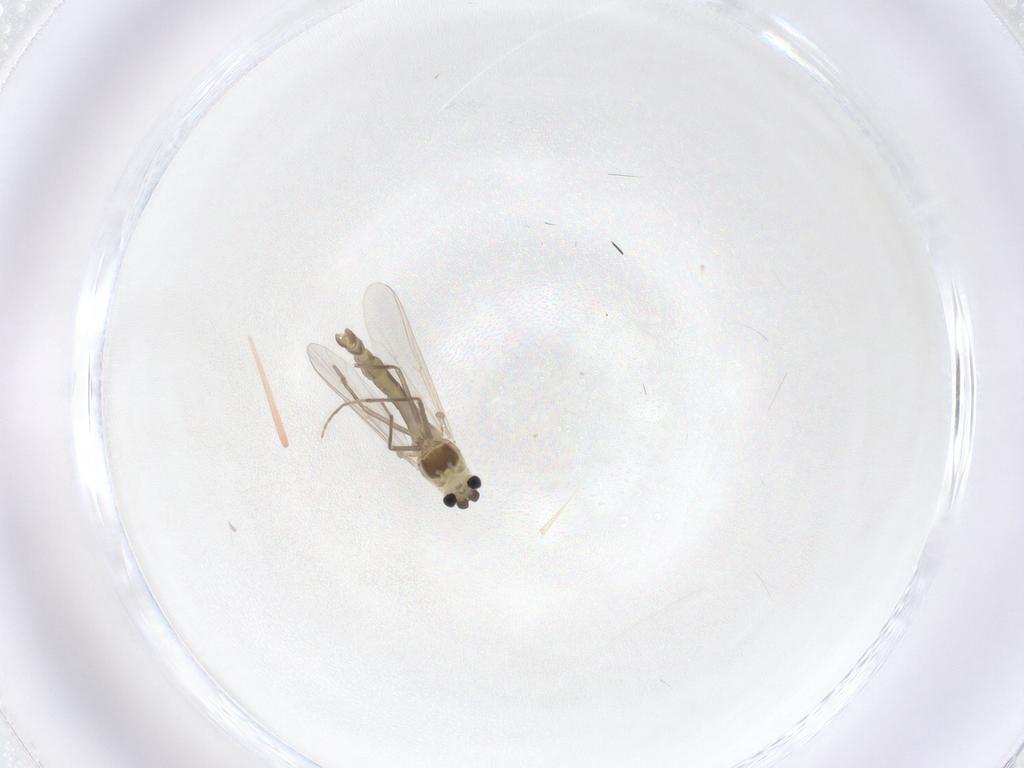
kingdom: Animalia
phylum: Arthropoda
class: Insecta
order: Diptera
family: Chironomidae
